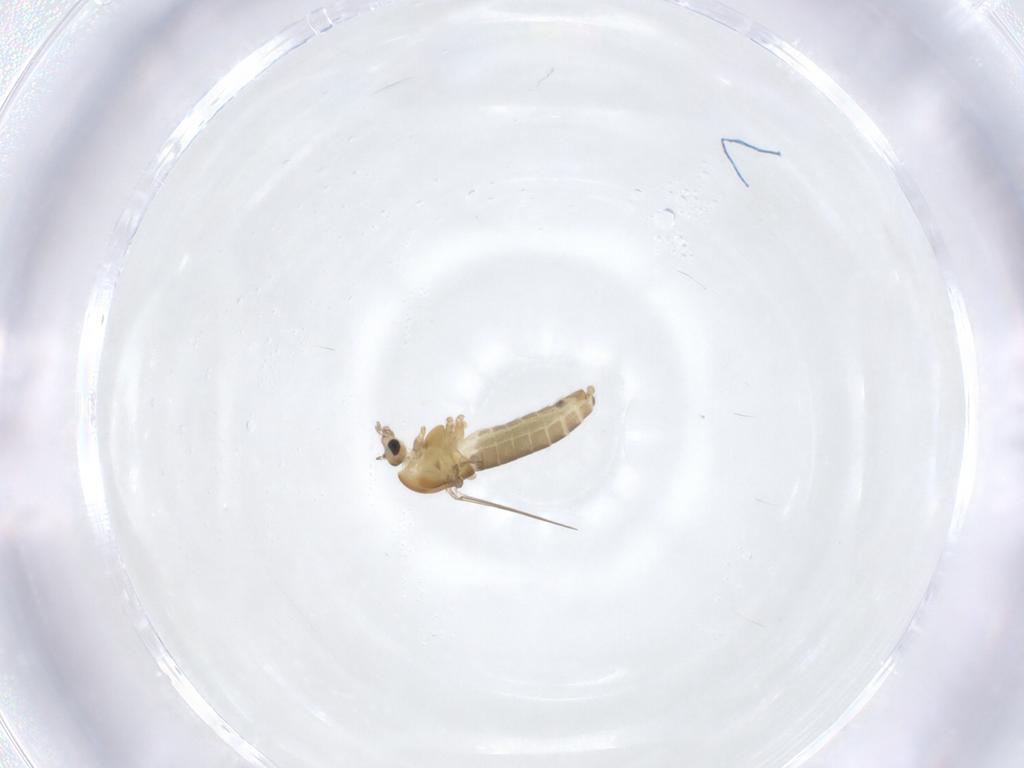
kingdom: Animalia
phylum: Arthropoda
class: Insecta
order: Diptera
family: Chironomidae
